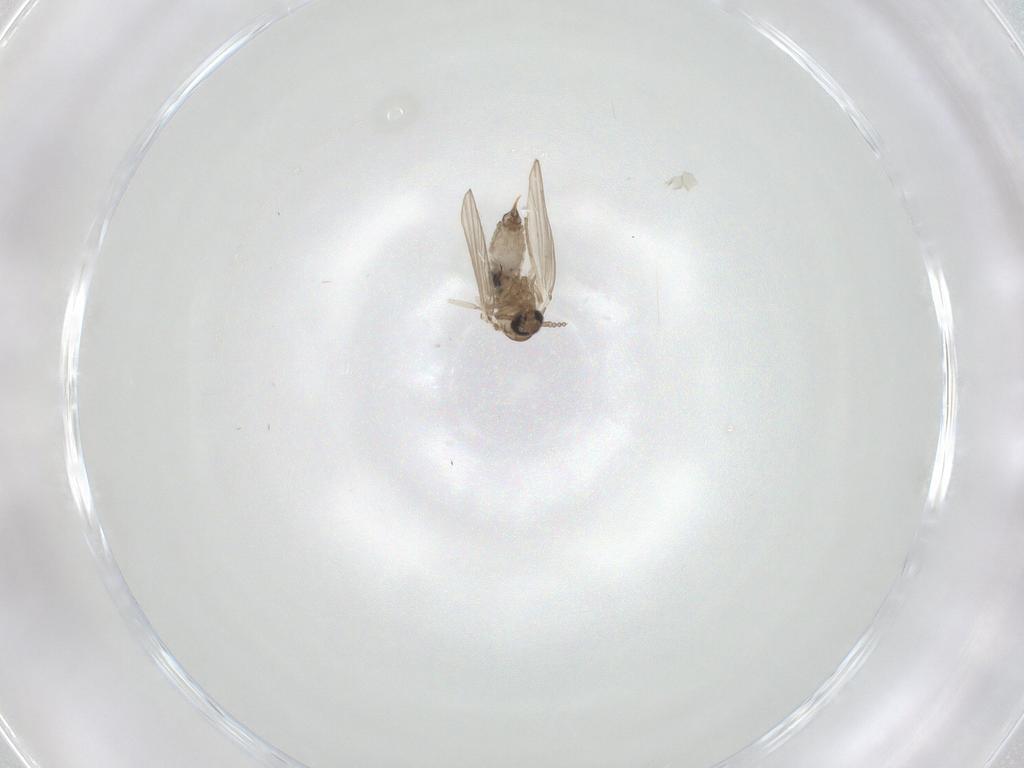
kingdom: Animalia
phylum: Arthropoda
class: Insecta
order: Diptera
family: Psychodidae
